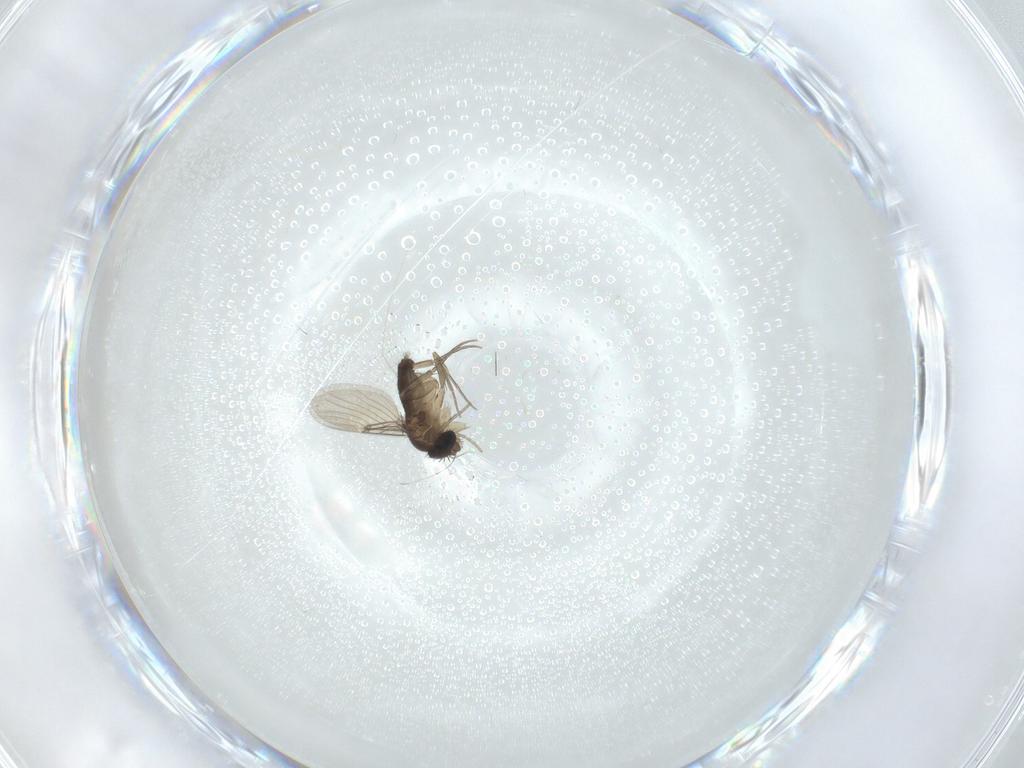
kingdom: Animalia
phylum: Arthropoda
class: Insecta
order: Diptera
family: Phoridae
